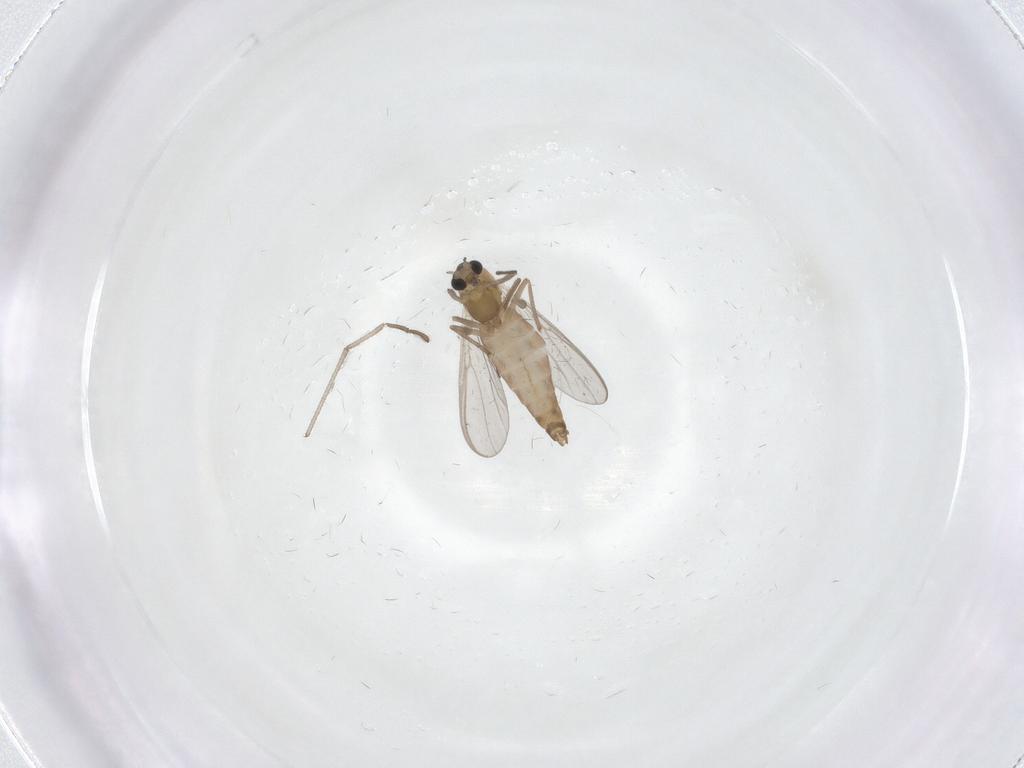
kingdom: Animalia
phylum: Arthropoda
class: Insecta
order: Diptera
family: Chironomidae
